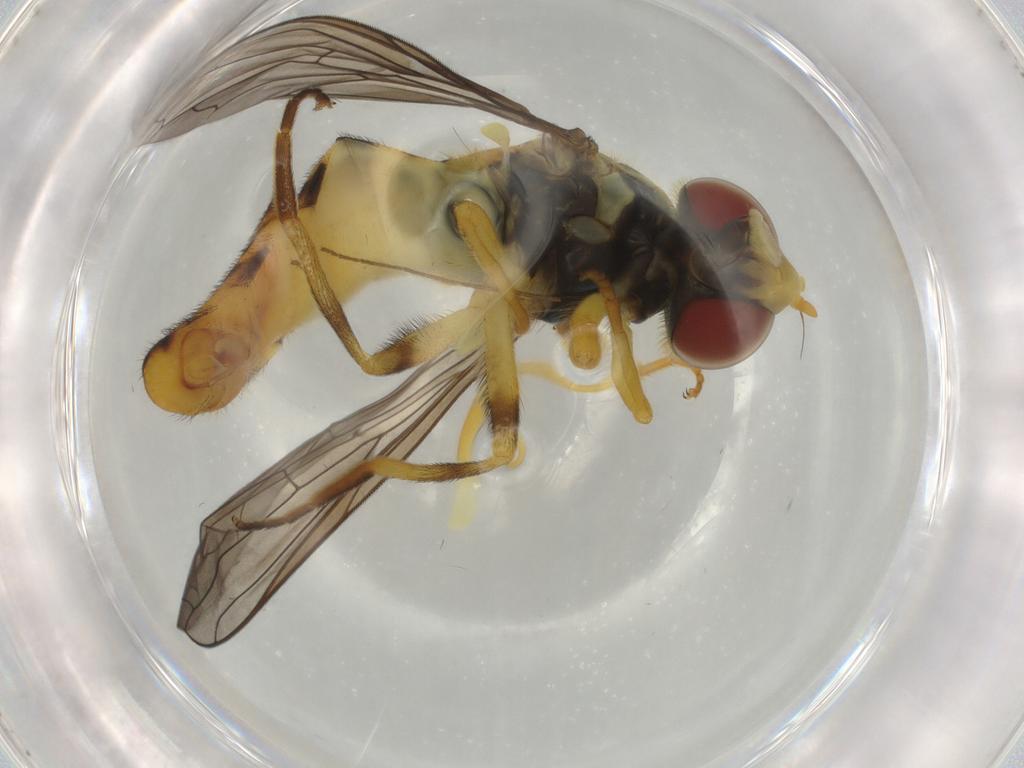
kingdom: Animalia
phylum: Arthropoda
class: Insecta
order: Diptera
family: Syrphidae
